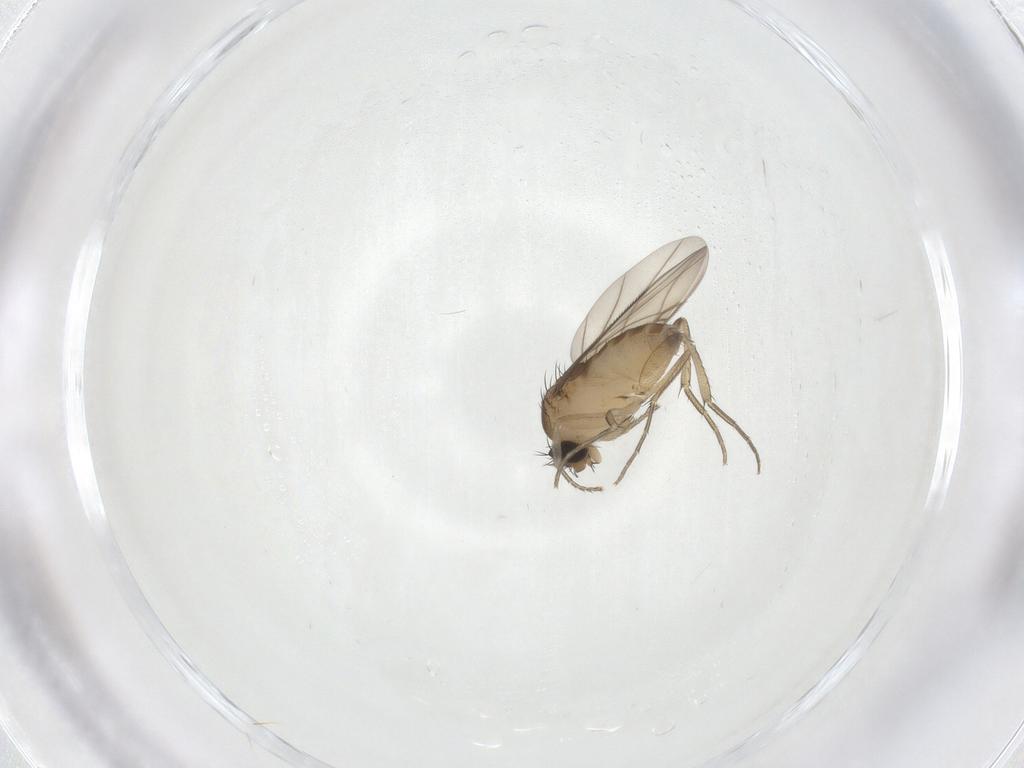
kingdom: Animalia
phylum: Arthropoda
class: Insecta
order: Diptera
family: Phoridae
